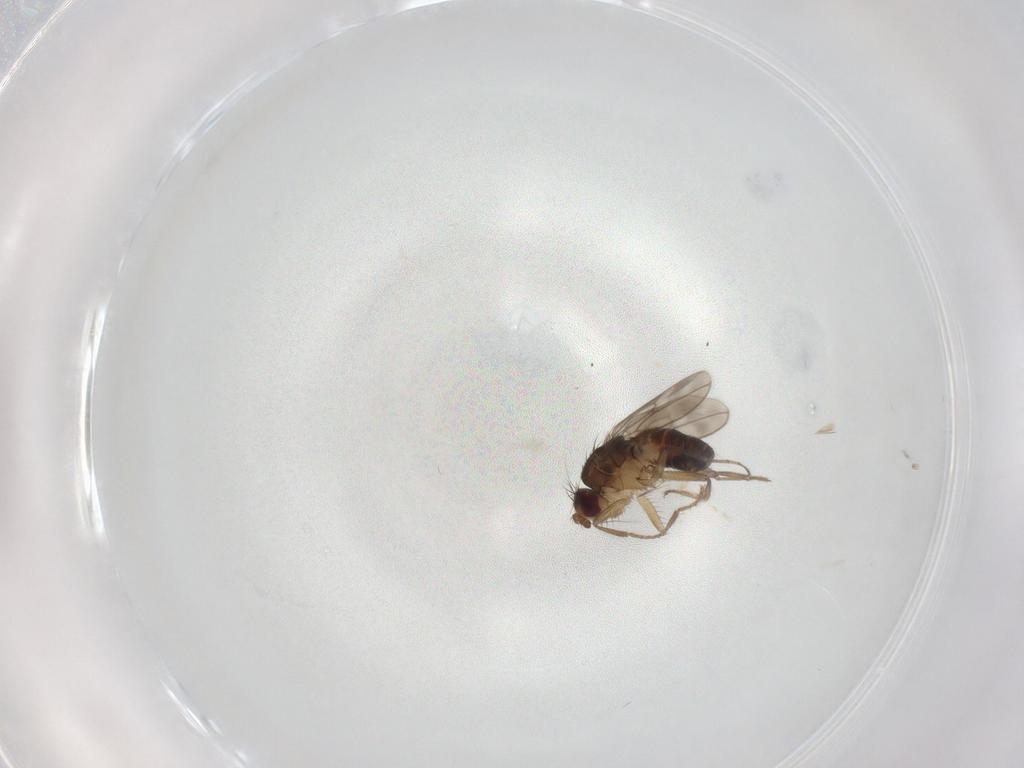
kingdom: Animalia
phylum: Arthropoda
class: Insecta
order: Diptera
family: Sphaeroceridae
